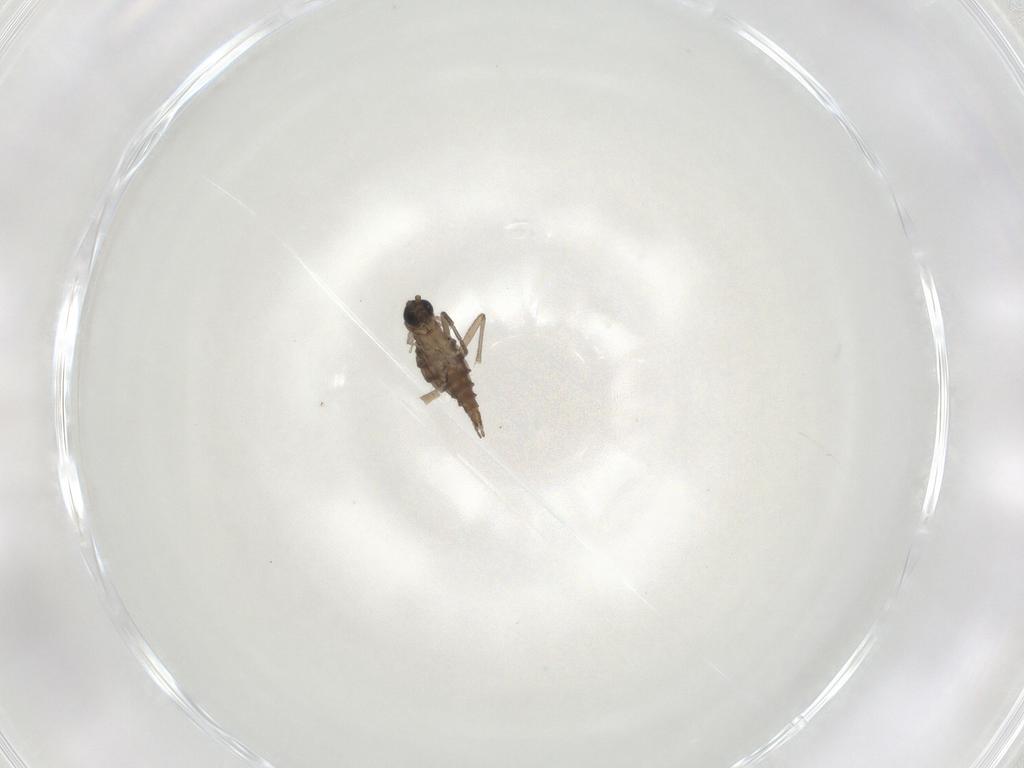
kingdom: Animalia
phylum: Arthropoda
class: Insecta
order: Diptera
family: Sciaridae
